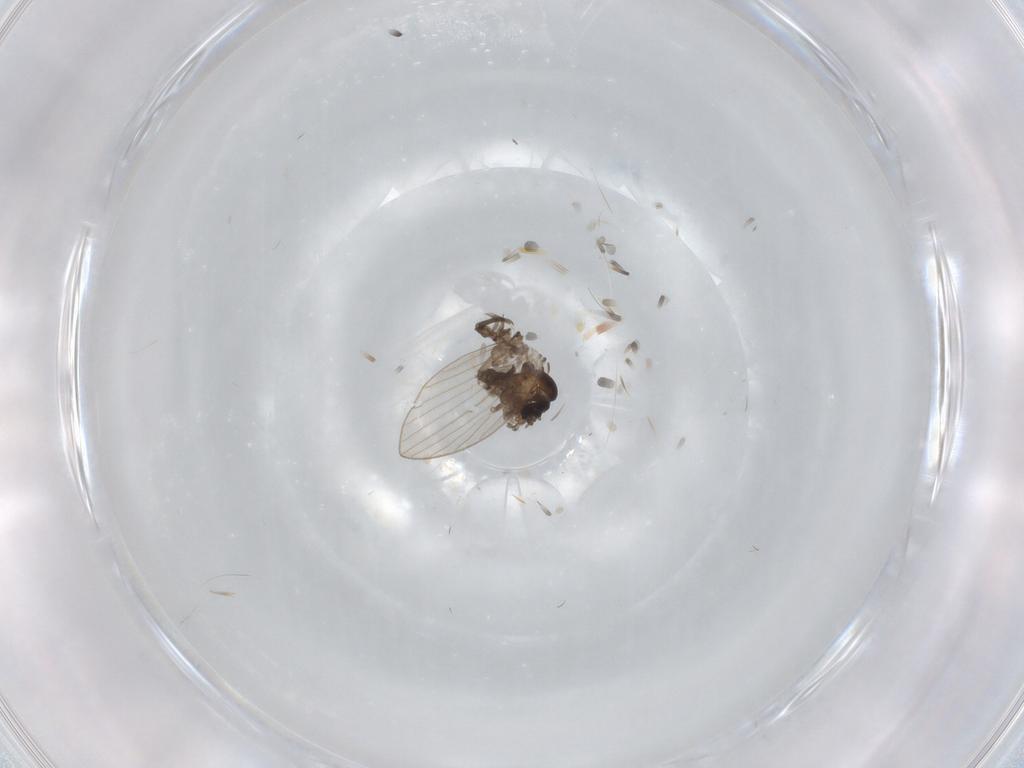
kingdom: Animalia
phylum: Arthropoda
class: Insecta
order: Diptera
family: Psychodidae
